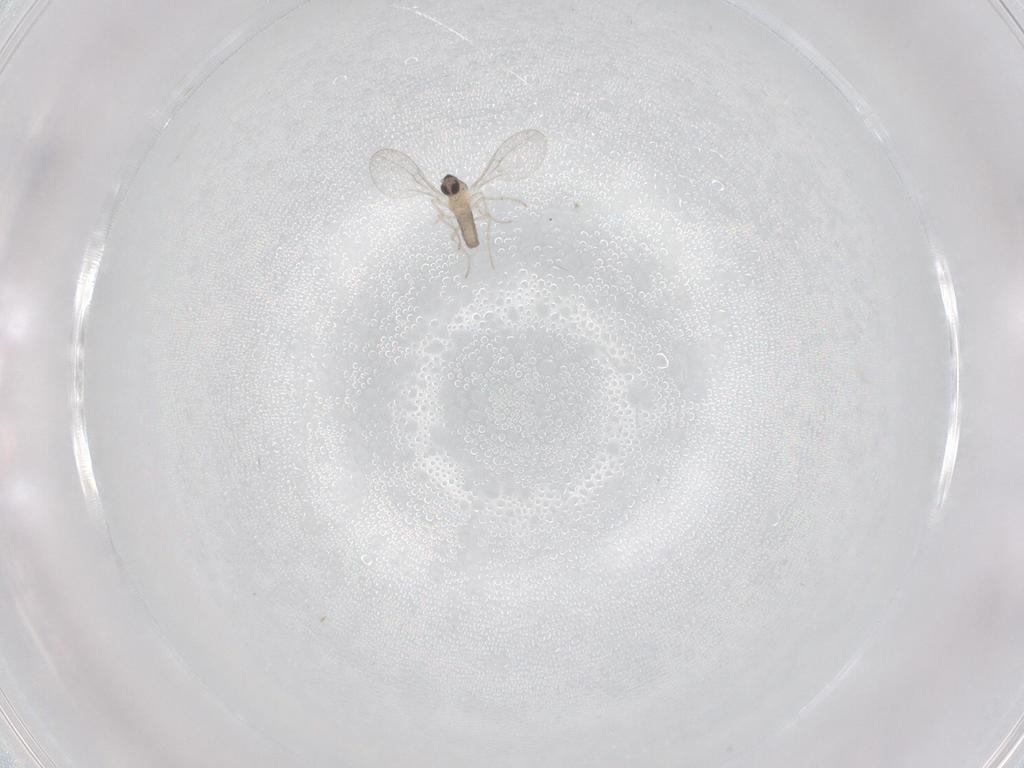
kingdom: Animalia
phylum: Arthropoda
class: Insecta
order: Diptera
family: Cecidomyiidae
